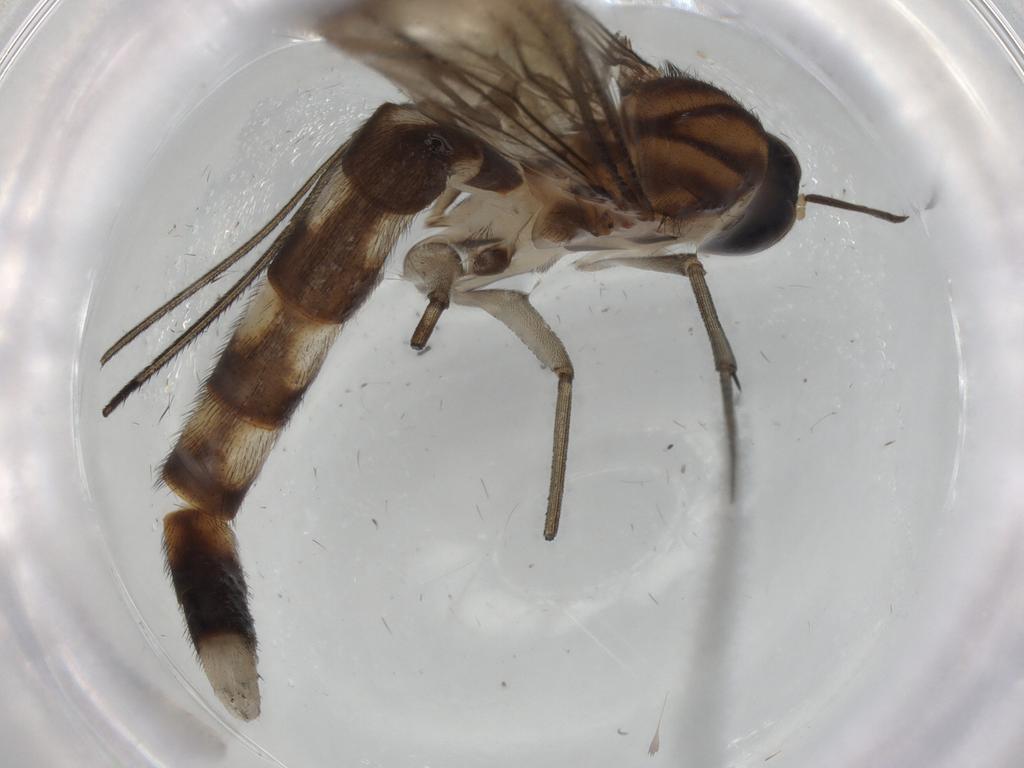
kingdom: Animalia
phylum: Arthropoda
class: Insecta
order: Diptera
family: Keroplatidae
